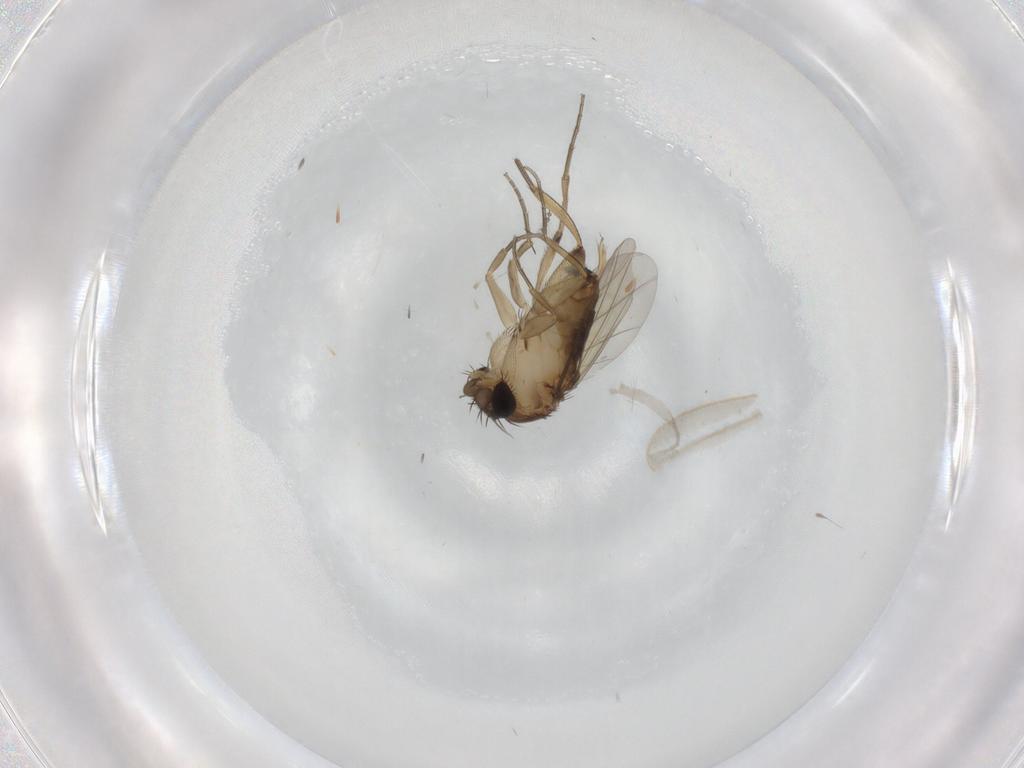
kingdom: Animalia
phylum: Arthropoda
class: Insecta
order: Diptera
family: Phoridae
